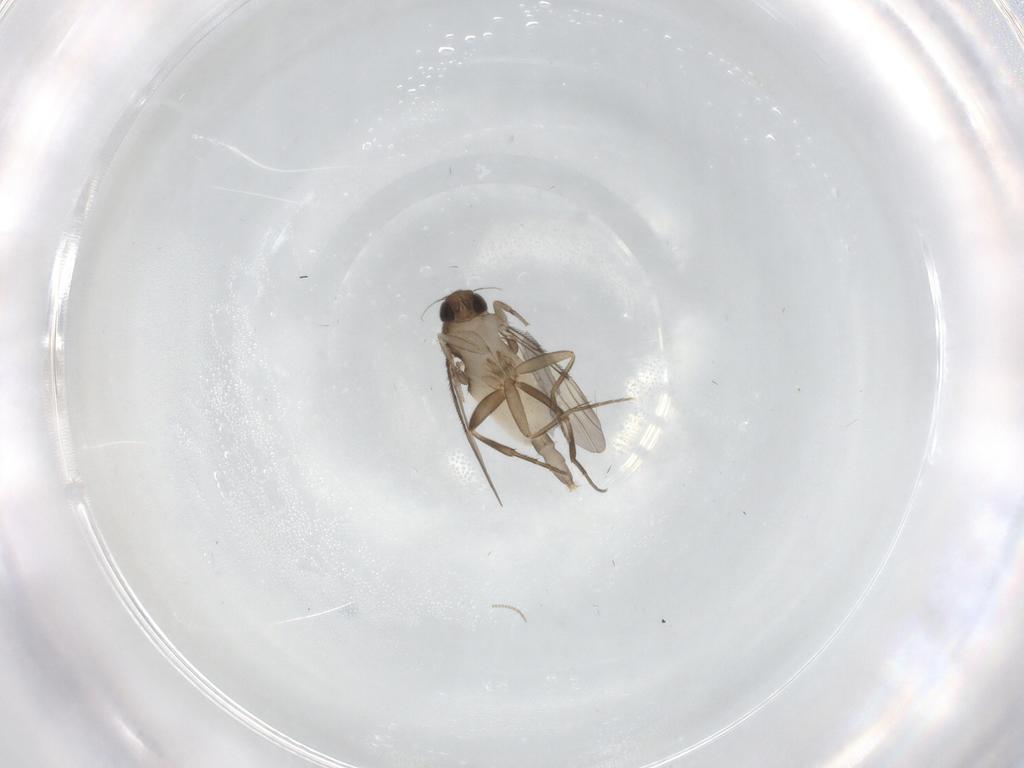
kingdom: Animalia
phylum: Arthropoda
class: Insecta
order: Diptera
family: Phoridae
